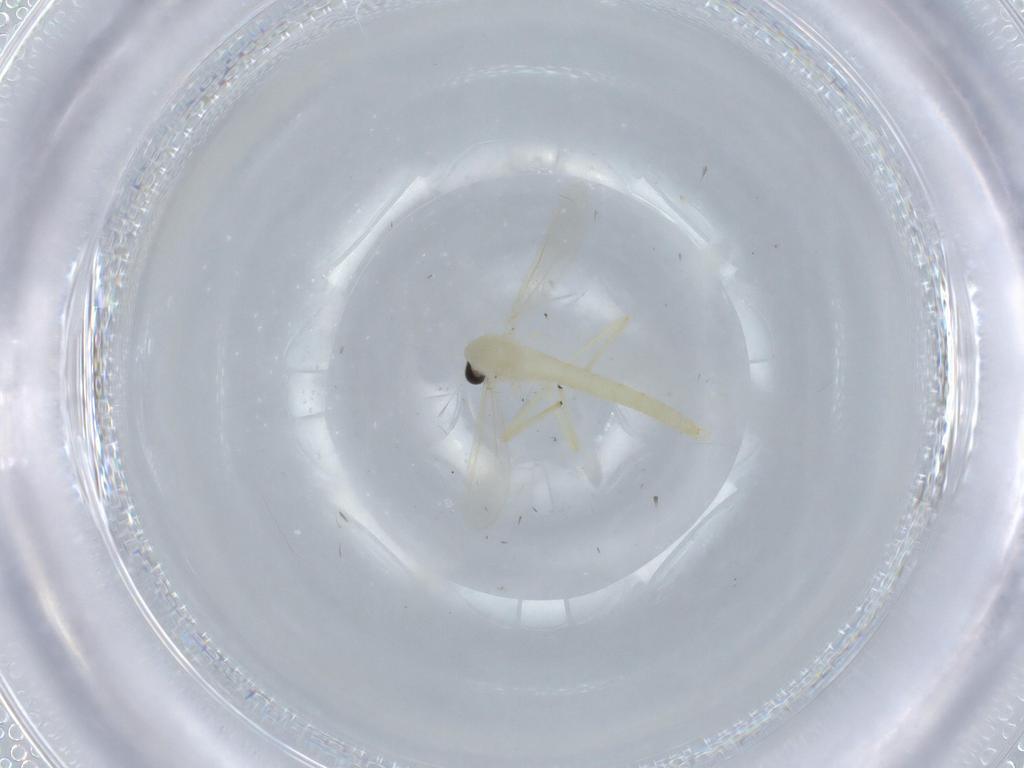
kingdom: Animalia
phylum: Arthropoda
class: Insecta
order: Diptera
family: Chironomidae
